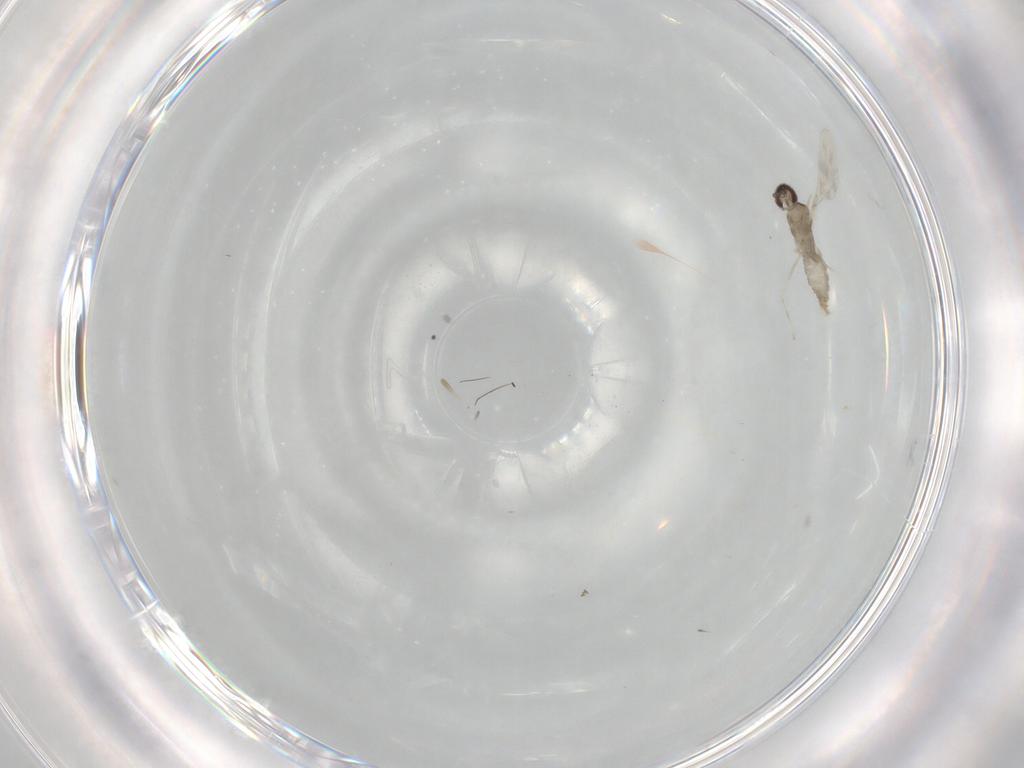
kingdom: Animalia
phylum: Arthropoda
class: Insecta
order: Diptera
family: Cecidomyiidae
